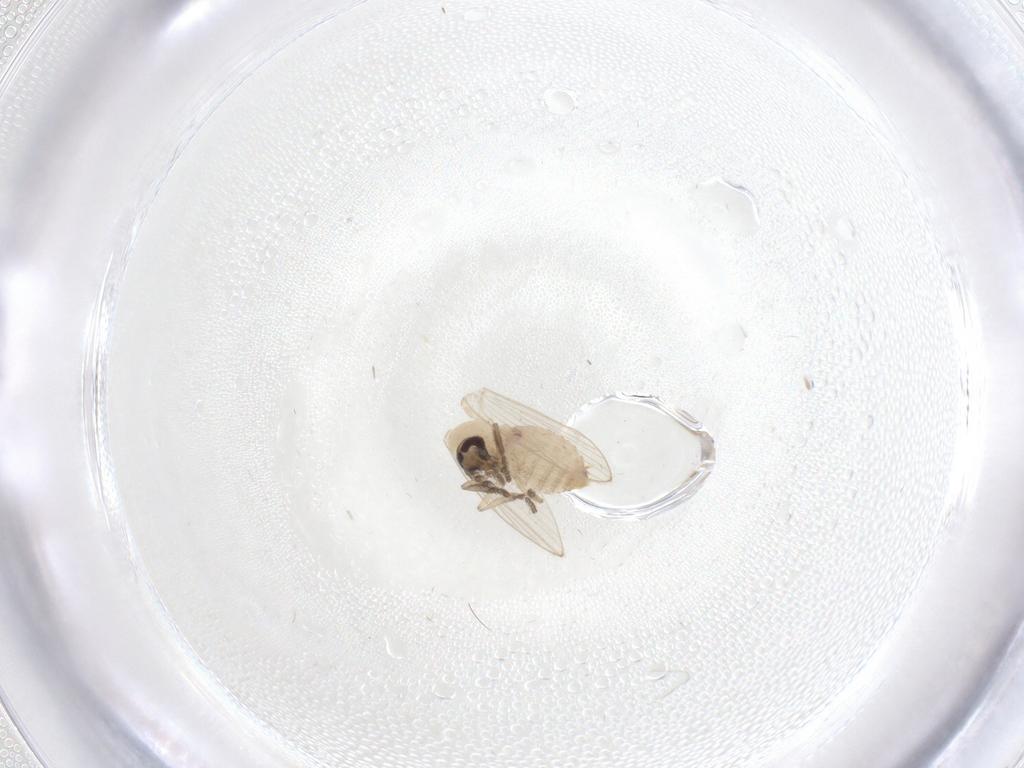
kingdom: Animalia
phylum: Arthropoda
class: Insecta
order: Diptera
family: Psychodidae
